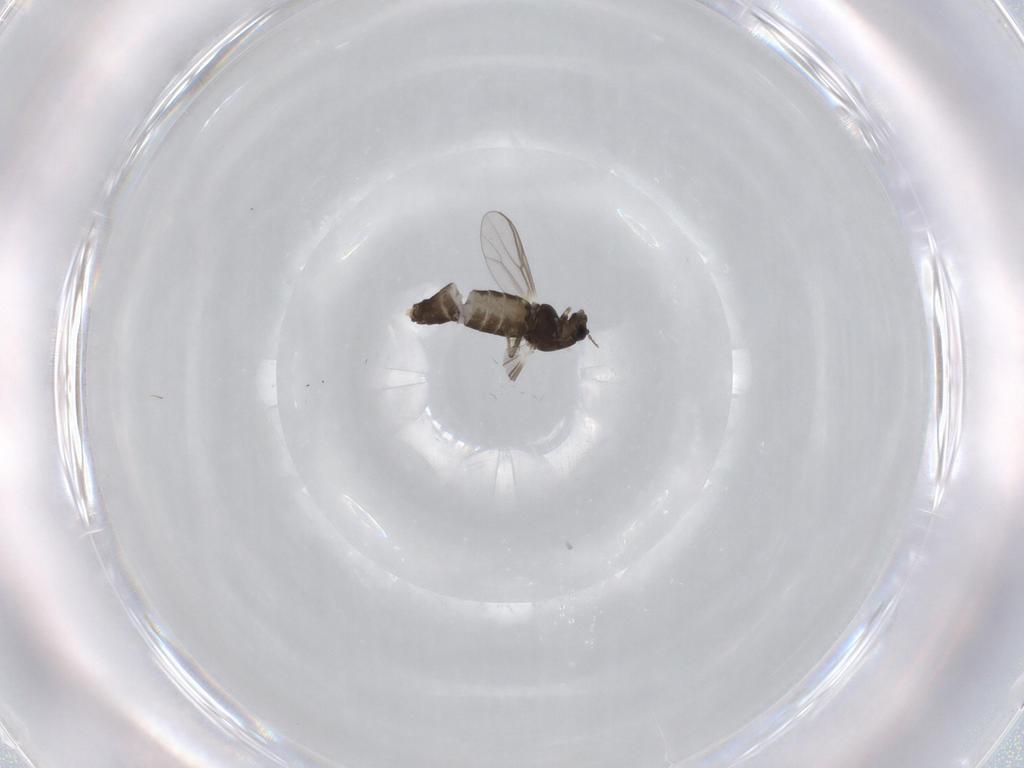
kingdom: Animalia
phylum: Arthropoda
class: Insecta
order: Diptera
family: Chironomidae
